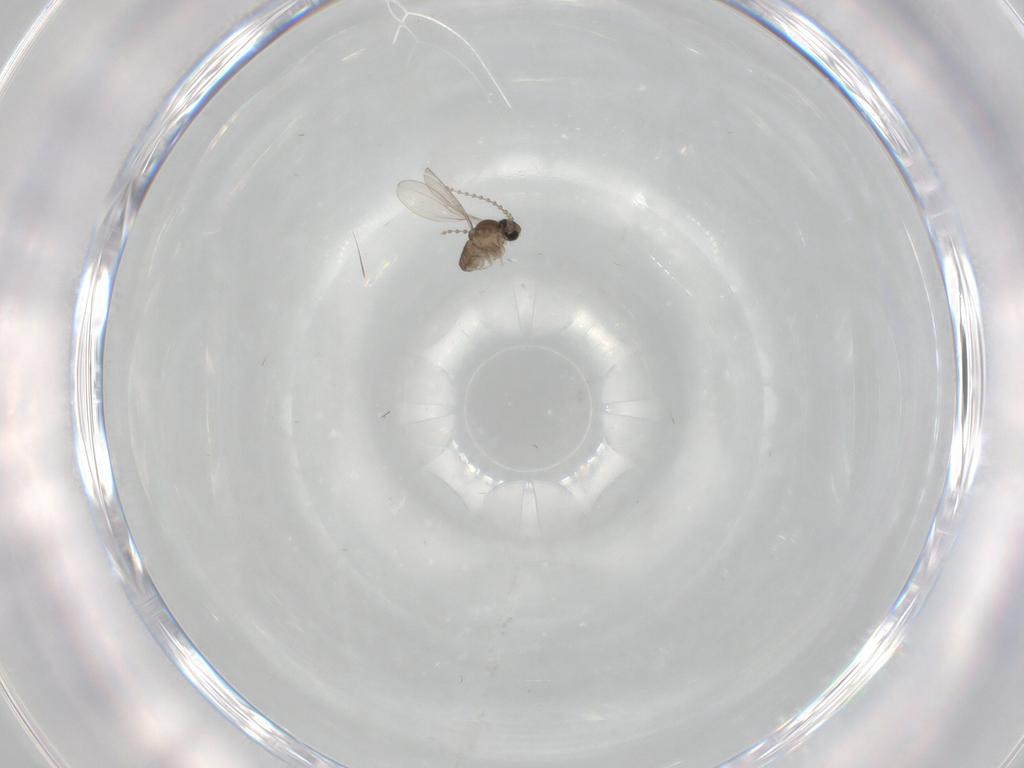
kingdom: Animalia
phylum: Arthropoda
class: Insecta
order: Diptera
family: Cecidomyiidae
